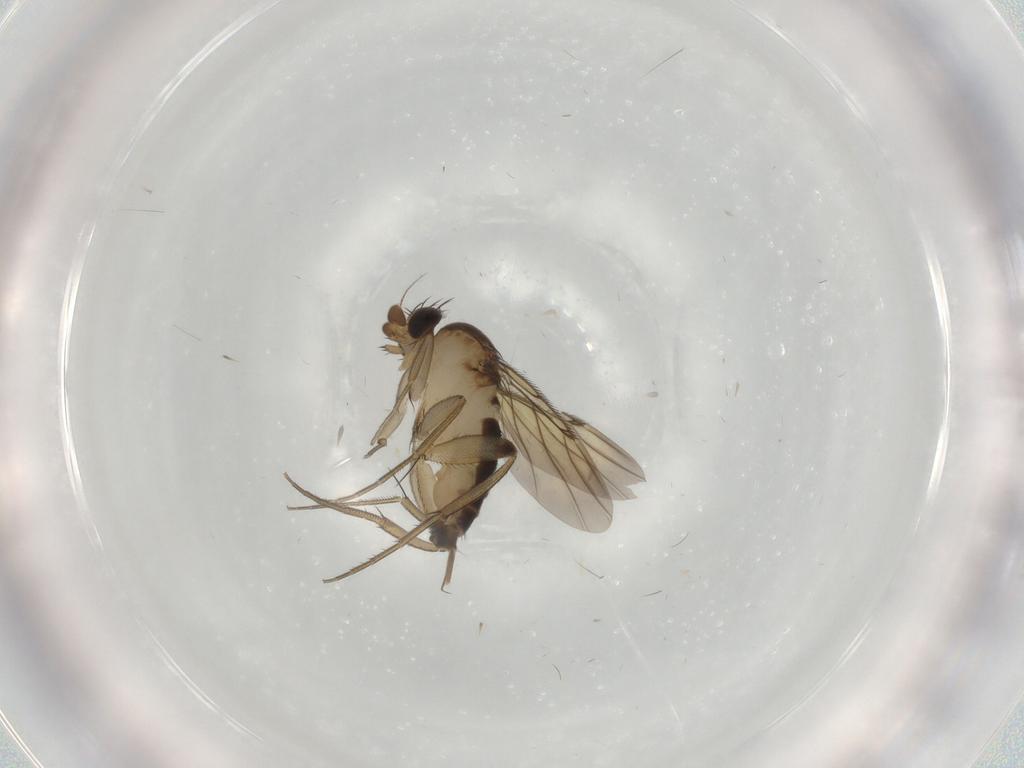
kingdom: Animalia
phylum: Arthropoda
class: Insecta
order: Diptera
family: Phoridae
